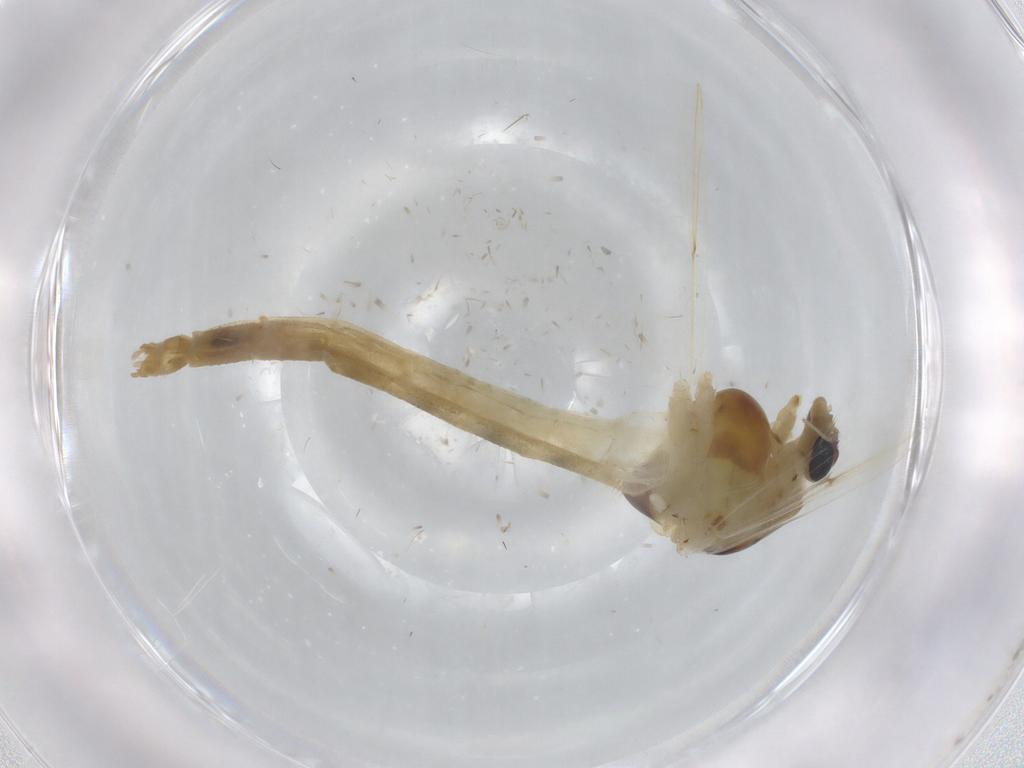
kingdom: Animalia
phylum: Arthropoda
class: Insecta
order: Diptera
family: Chironomidae
